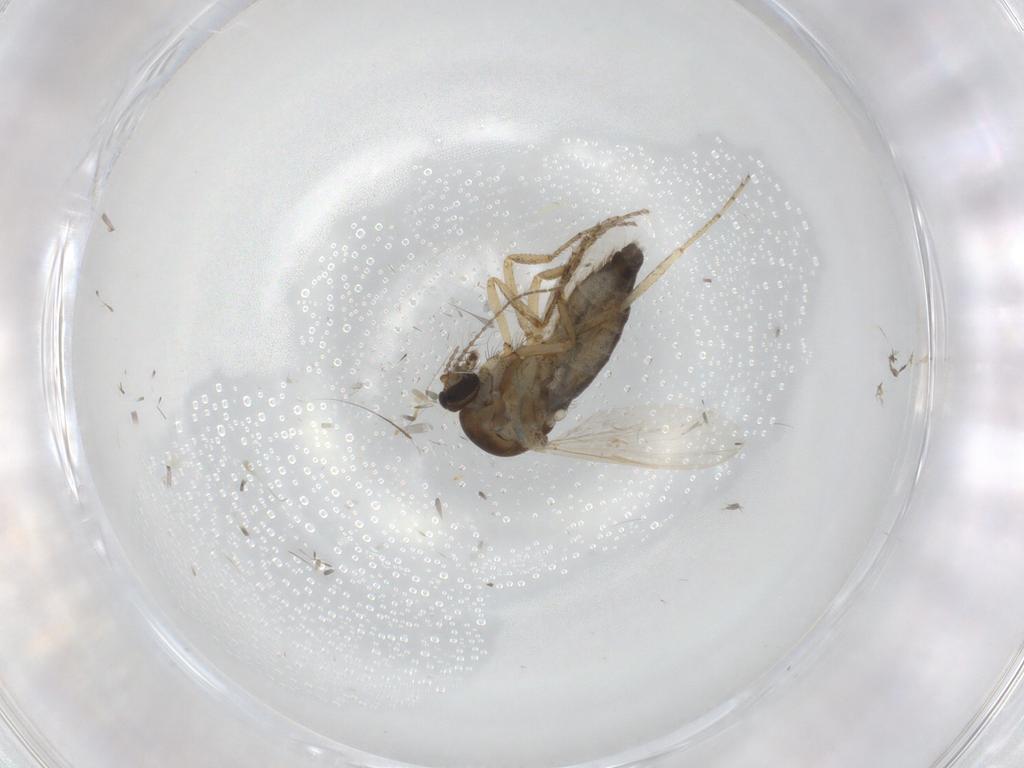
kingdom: Animalia
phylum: Arthropoda
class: Insecta
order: Diptera
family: Ceratopogonidae
